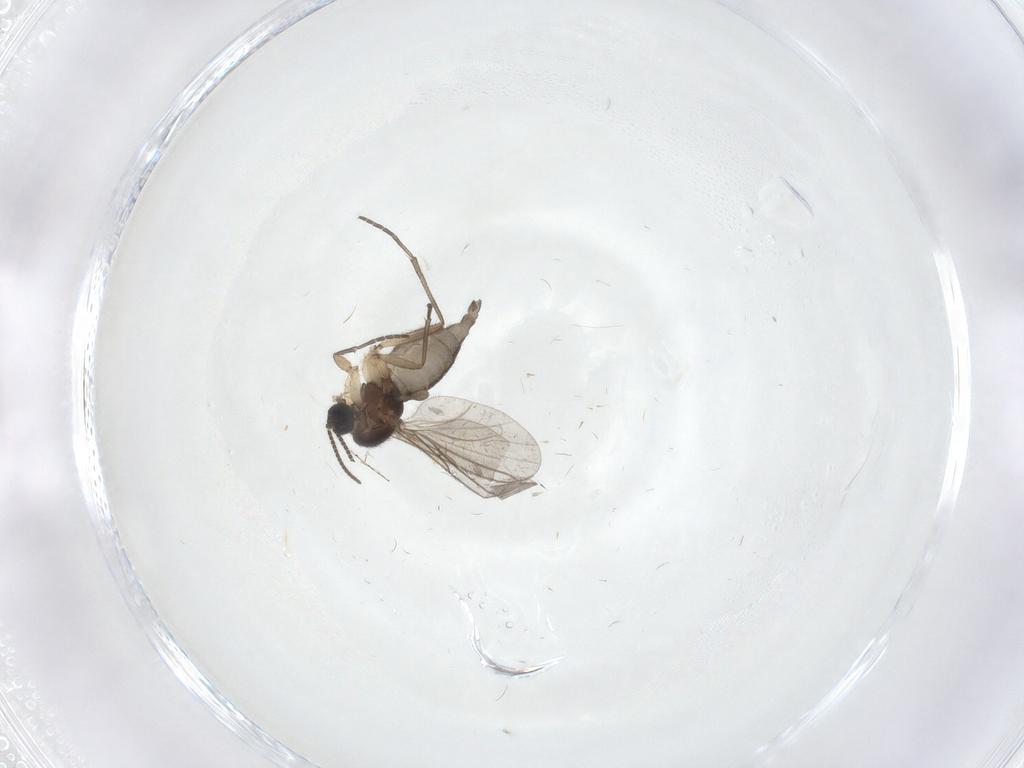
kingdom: Animalia
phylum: Arthropoda
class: Insecta
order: Diptera
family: Sciaridae
